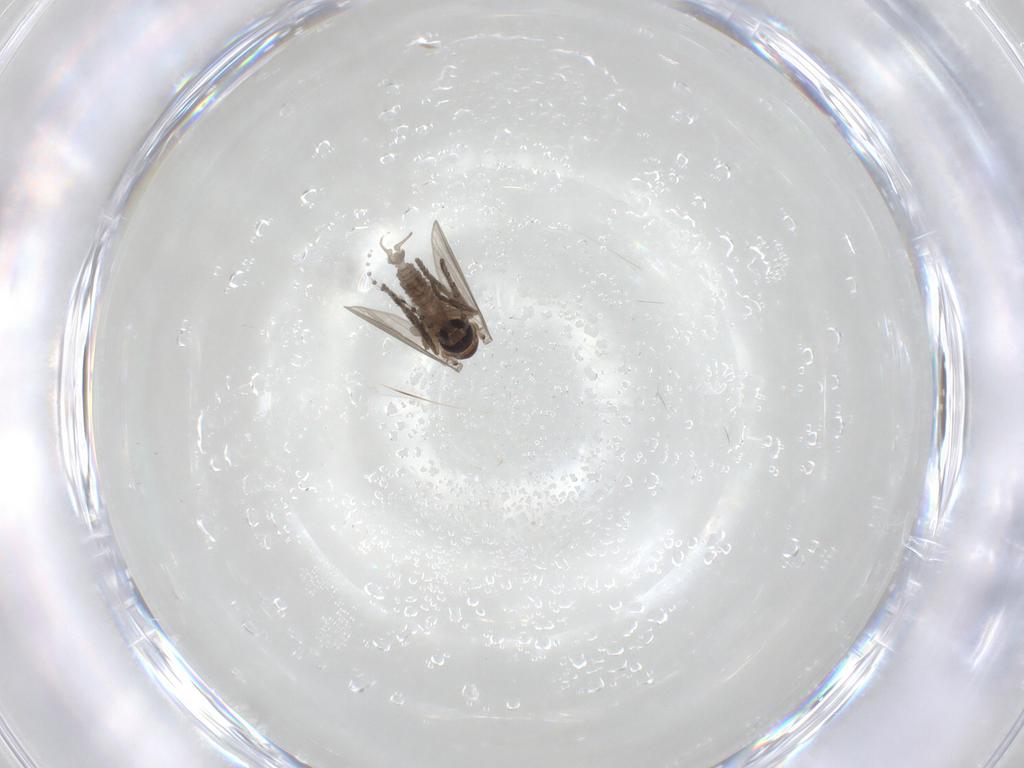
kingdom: Animalia
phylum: Arthropoda
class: Insecta
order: Diptera
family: Psychodidae
